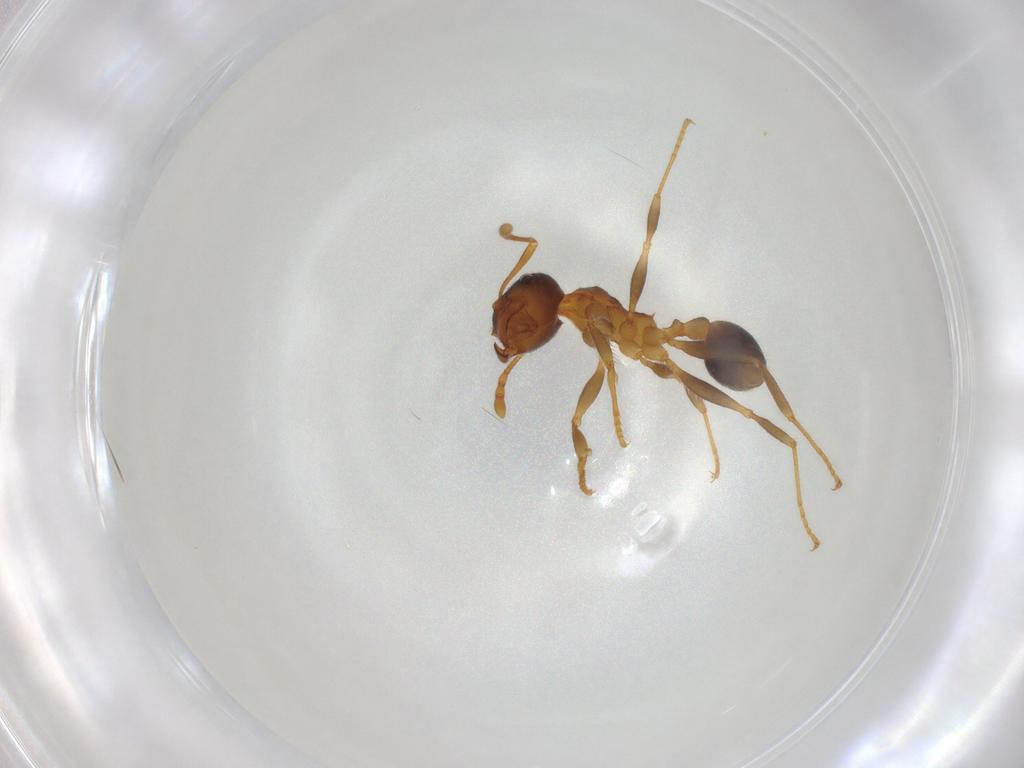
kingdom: Animalia
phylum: Arthropoda
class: Insecta
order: Hymenoptera
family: Formicidae
